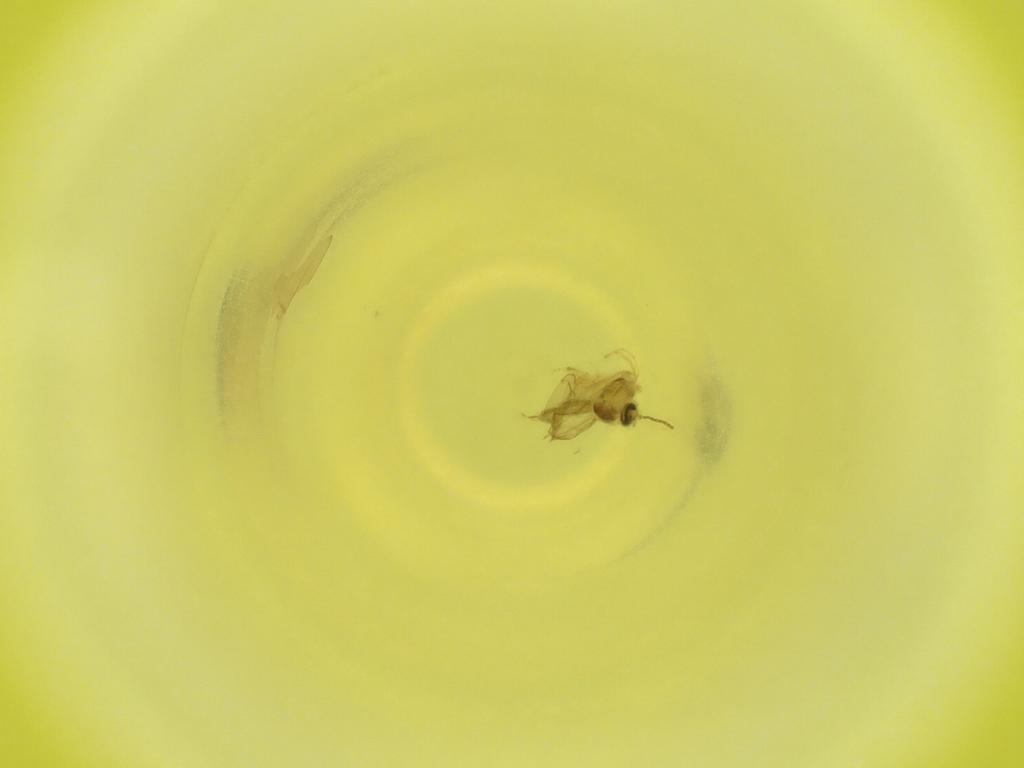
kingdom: Animalia
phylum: Arthropoda
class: Insecta
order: Diptera
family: Cecidomyiidae
